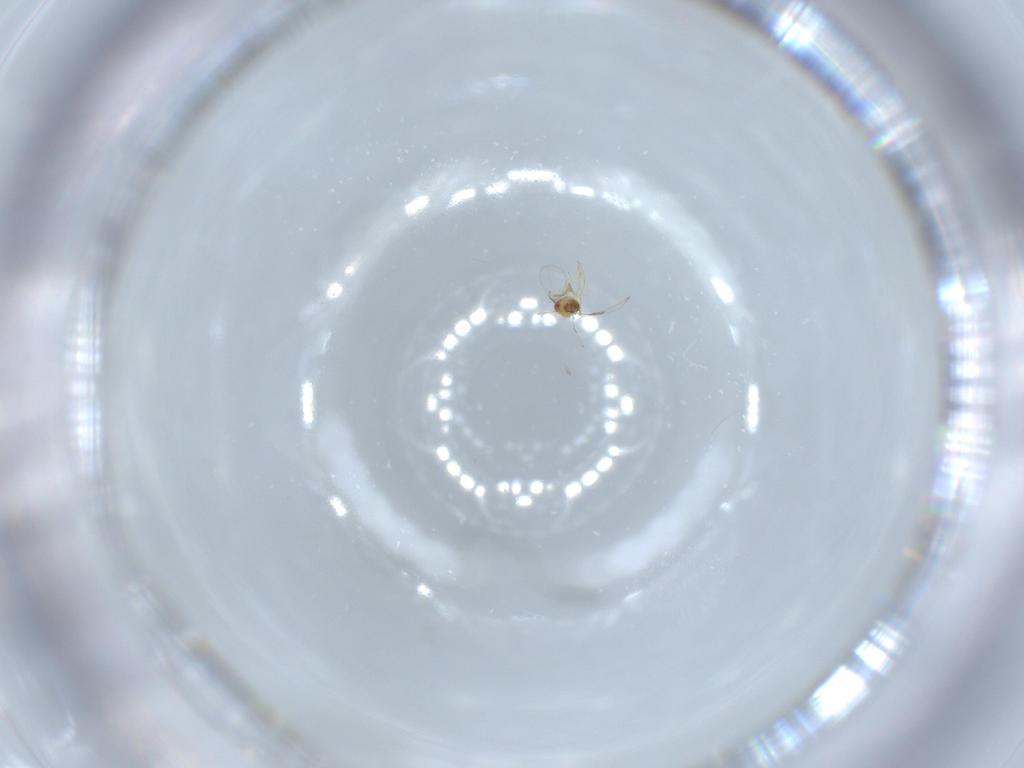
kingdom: Animalia
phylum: Arthropoda
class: Insecta
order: Hymenoptera
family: Trichogrammatidae
